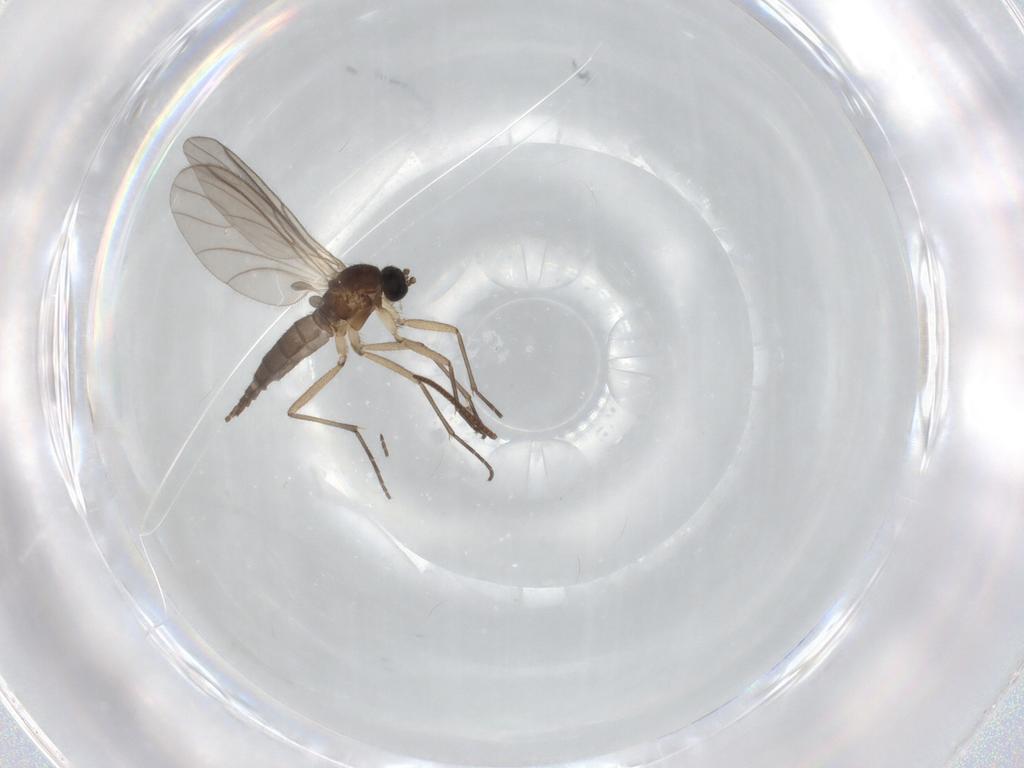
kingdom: Animalia
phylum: Arthropoda
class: Insecta
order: Diptera
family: Sciaridae
